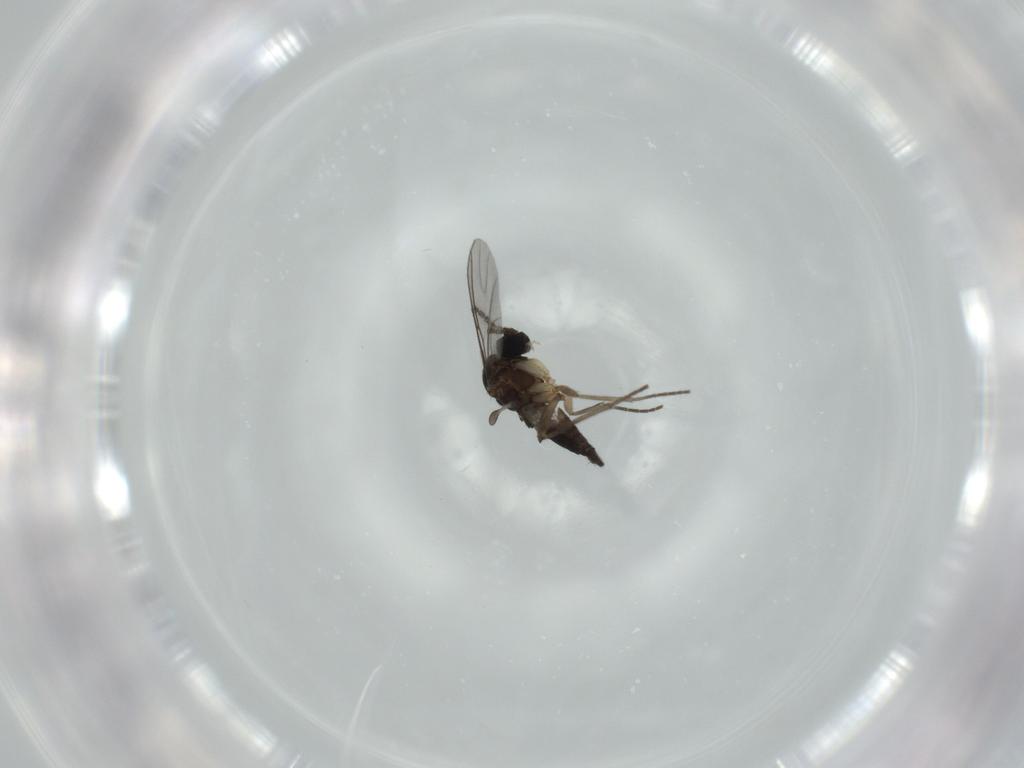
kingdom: Animalia
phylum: Arthropoda
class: Insecta
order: Diptera
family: Sciaridae
